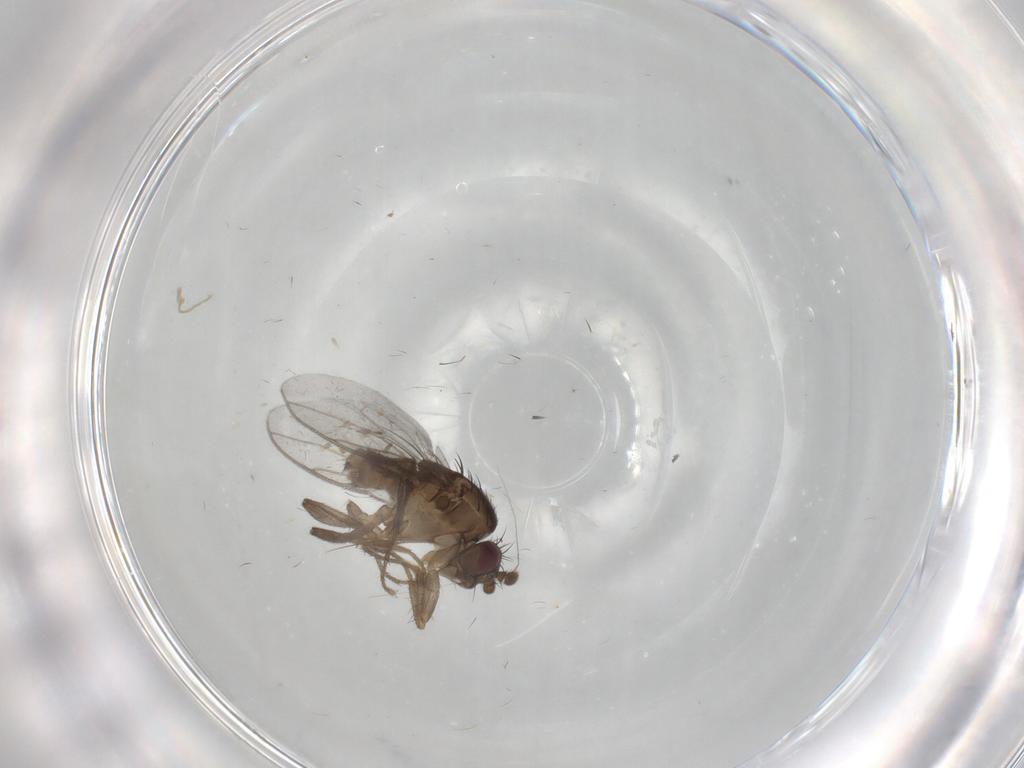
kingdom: Animalia
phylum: Arthropoda
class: Insecta
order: Diptera
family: Sphaeroceridae
